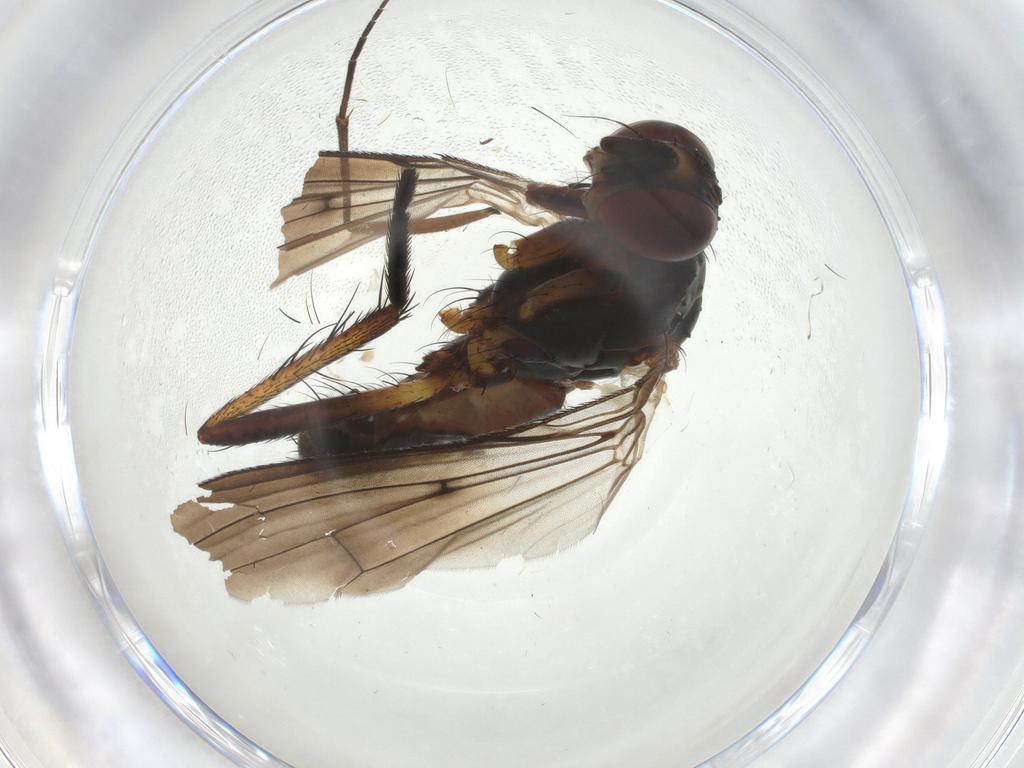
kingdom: Animalia
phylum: Arthropoda
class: Insecta
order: Diptera
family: Anthomyiidae
